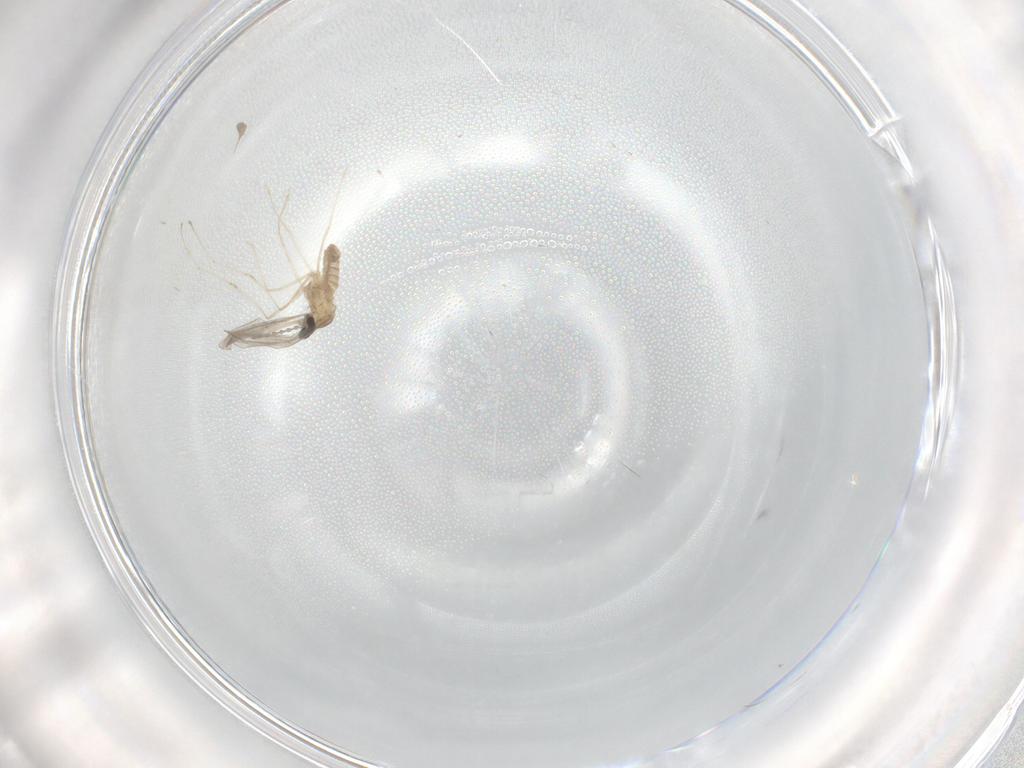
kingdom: Animalia
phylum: Arthropoda
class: Insecta
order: Diptera
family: Cecidomyiidae
